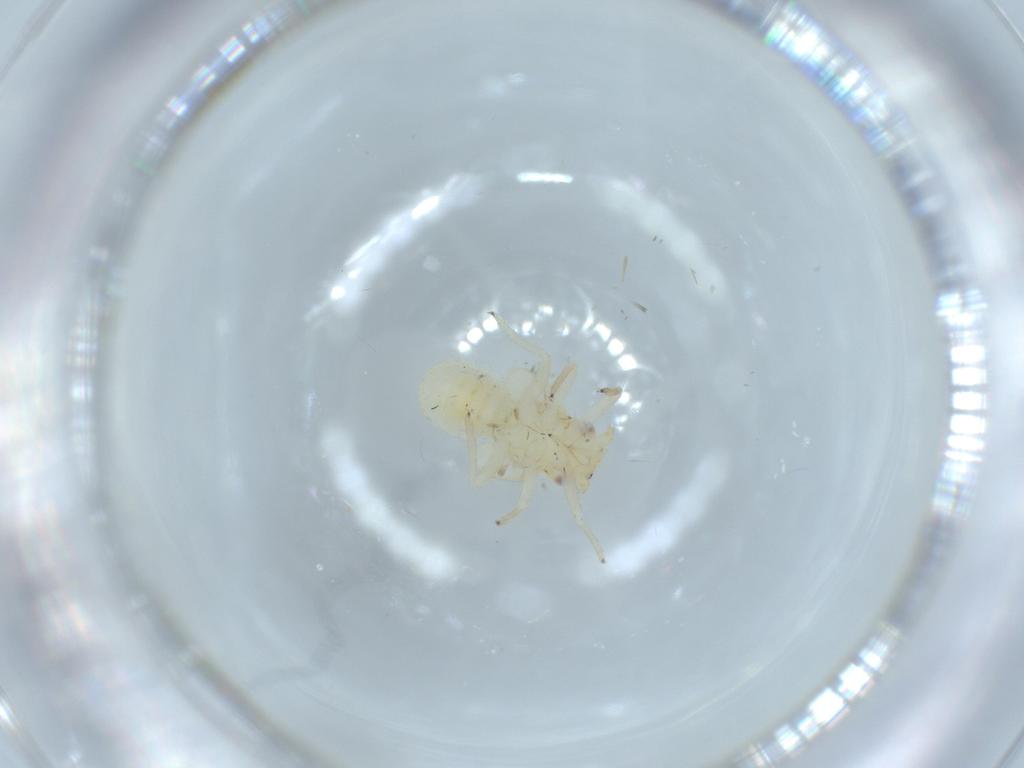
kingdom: Animalia
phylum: Arthropoda
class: Insecta
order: Hemiptera
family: Psyllidae
